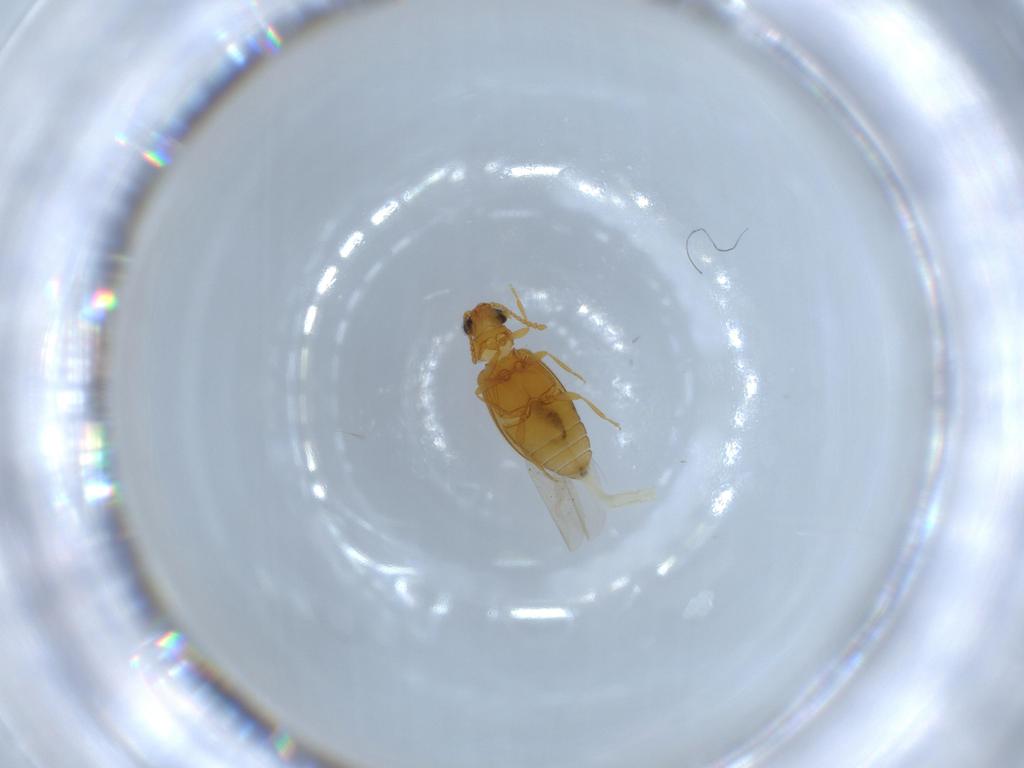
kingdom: Animalia
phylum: Arthropoda
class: Insecta
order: Coleoptera
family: Aderidae
